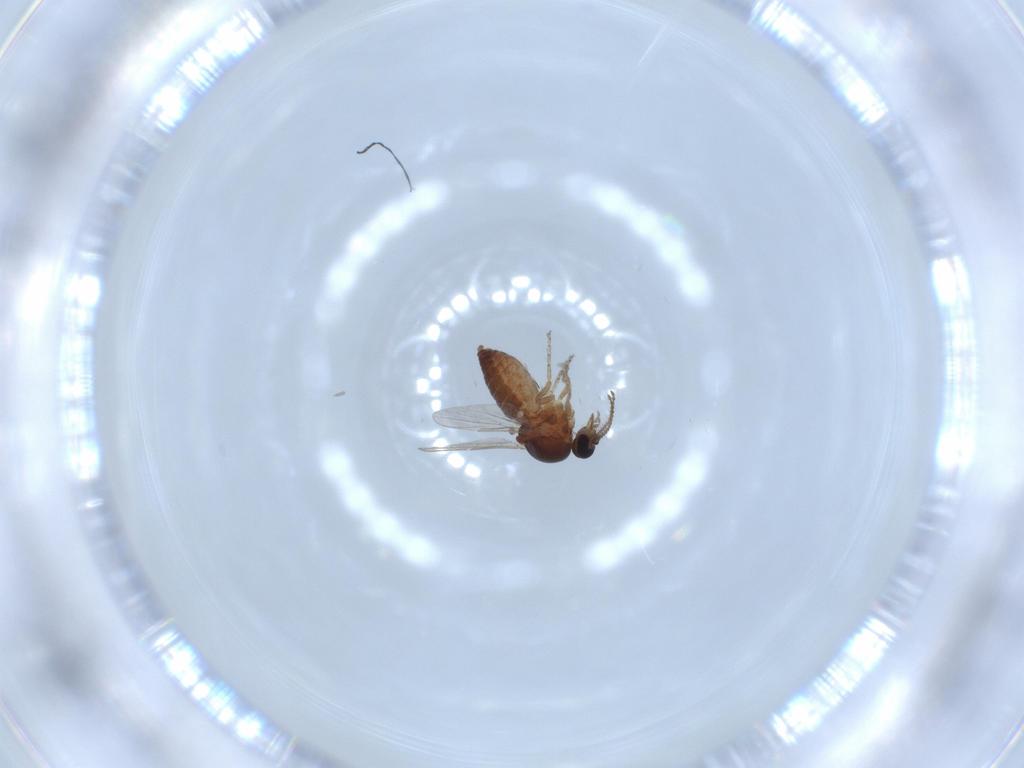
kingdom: Animalia
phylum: Arthropoda
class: Insecta
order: Diptera
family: Ceratopogonidae
